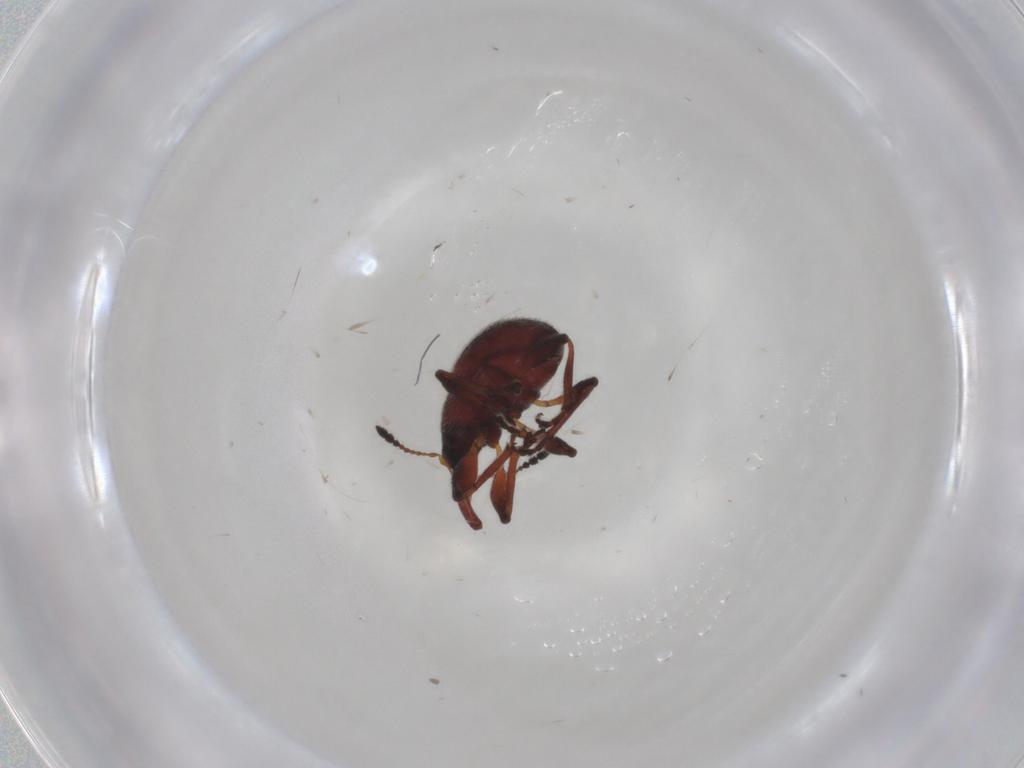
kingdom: Animalia
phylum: Arthropoda
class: Insecta
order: Coleoptera
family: Brentidae
